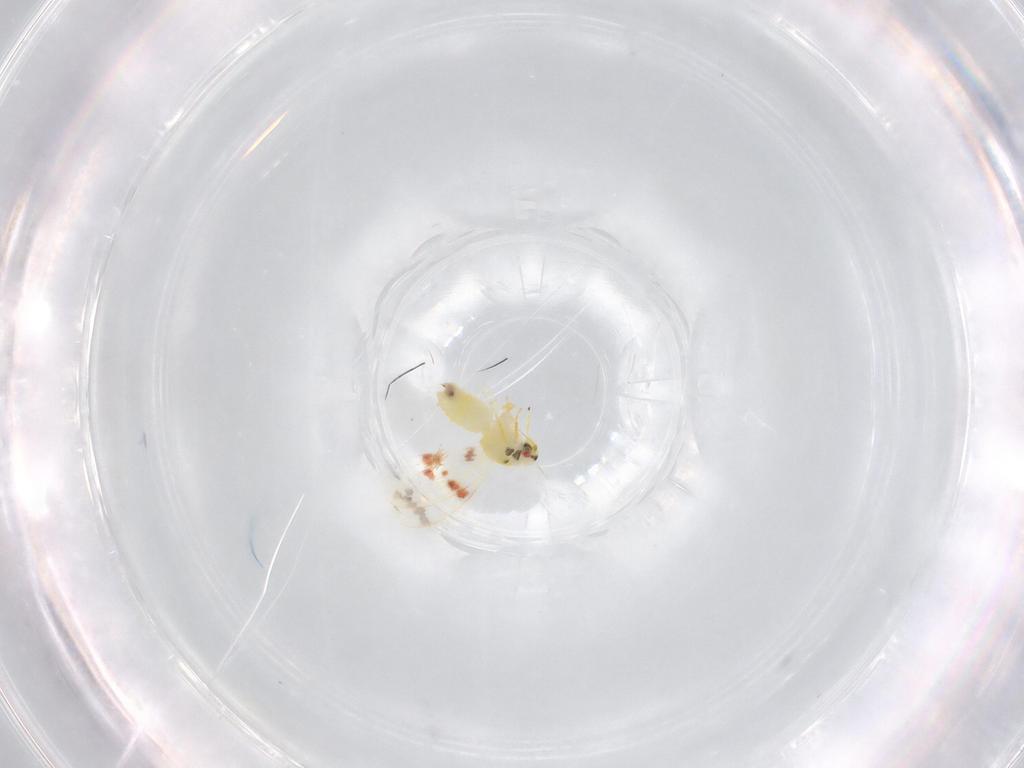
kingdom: Animalia
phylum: Arthropoda
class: Insecta
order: Hemiptera
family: Aleyrodidae
